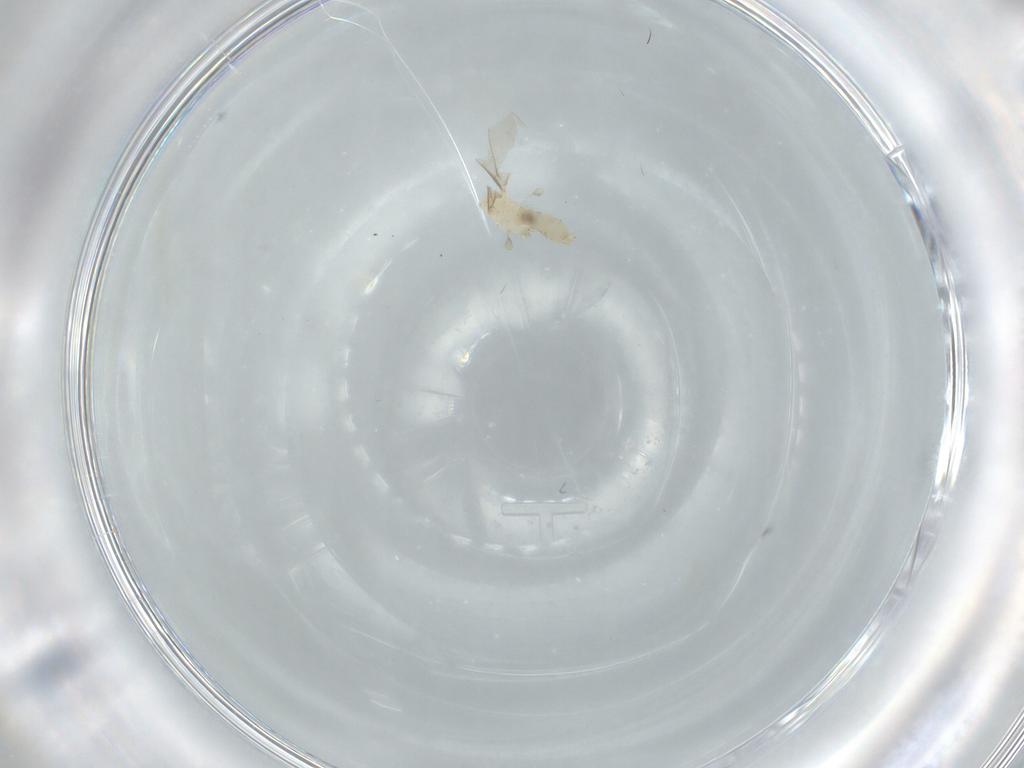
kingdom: Animalia
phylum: Arthropoda
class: Insecta
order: Diptera
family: Cecidomyiidae
